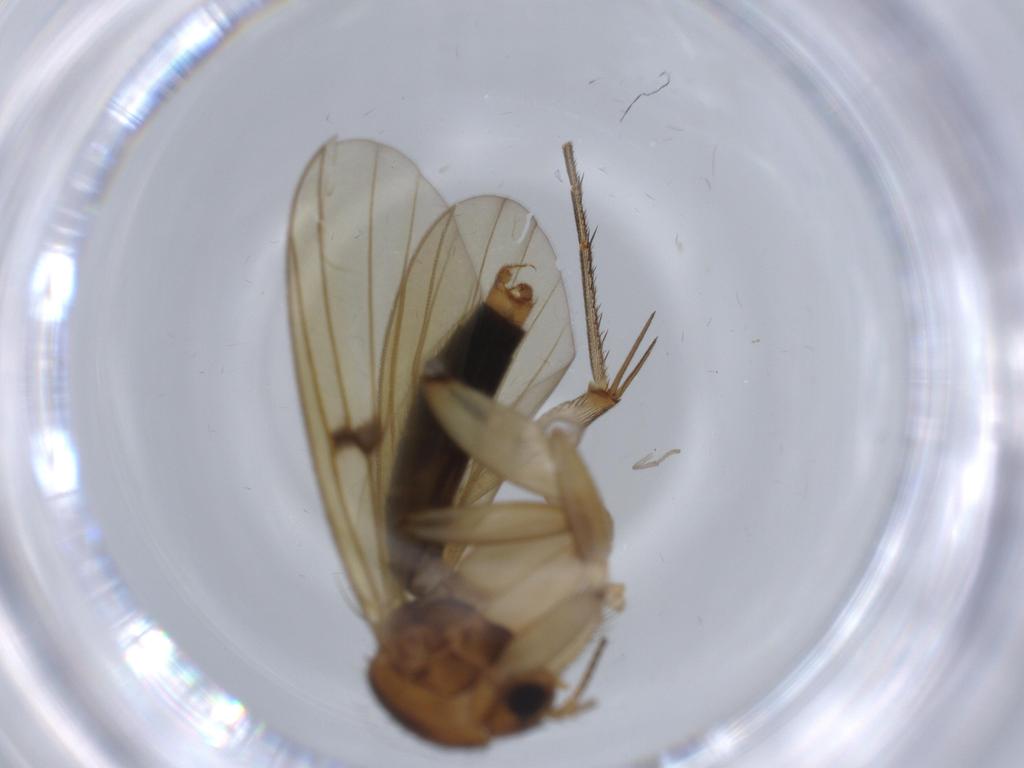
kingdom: Animalia
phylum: Arthropoda
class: Insecta
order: Diptera
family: Mycetophilidae
